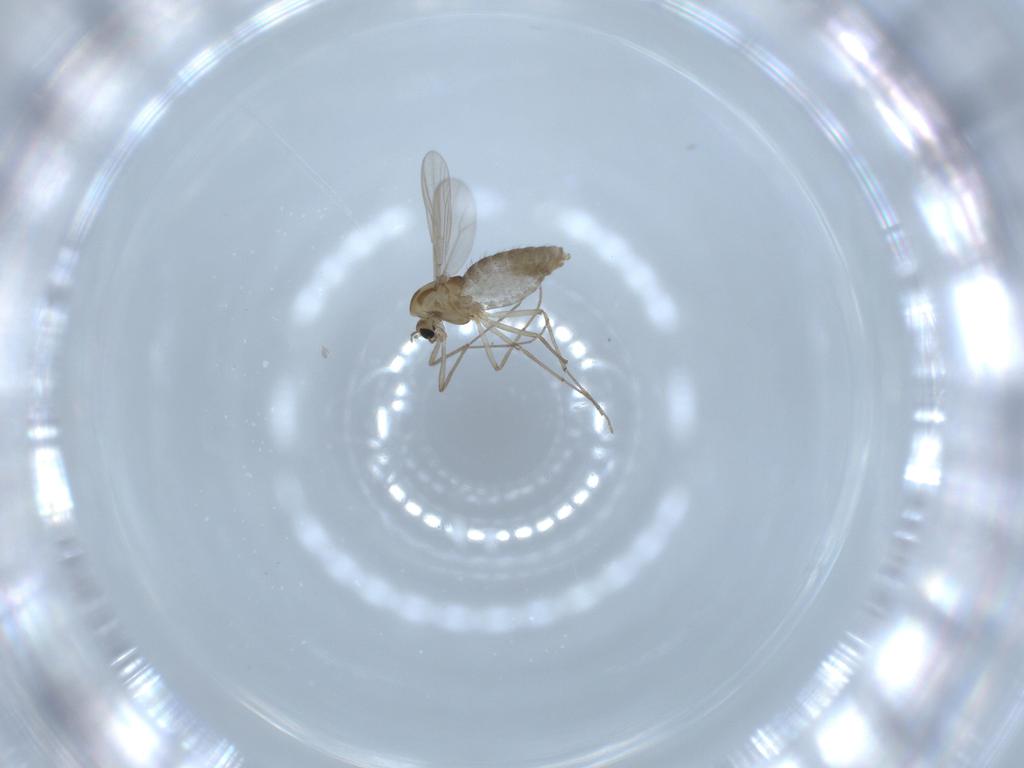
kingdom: Animalia
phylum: Arthropoda
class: Insecta
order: Diptera
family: Chironomidae
